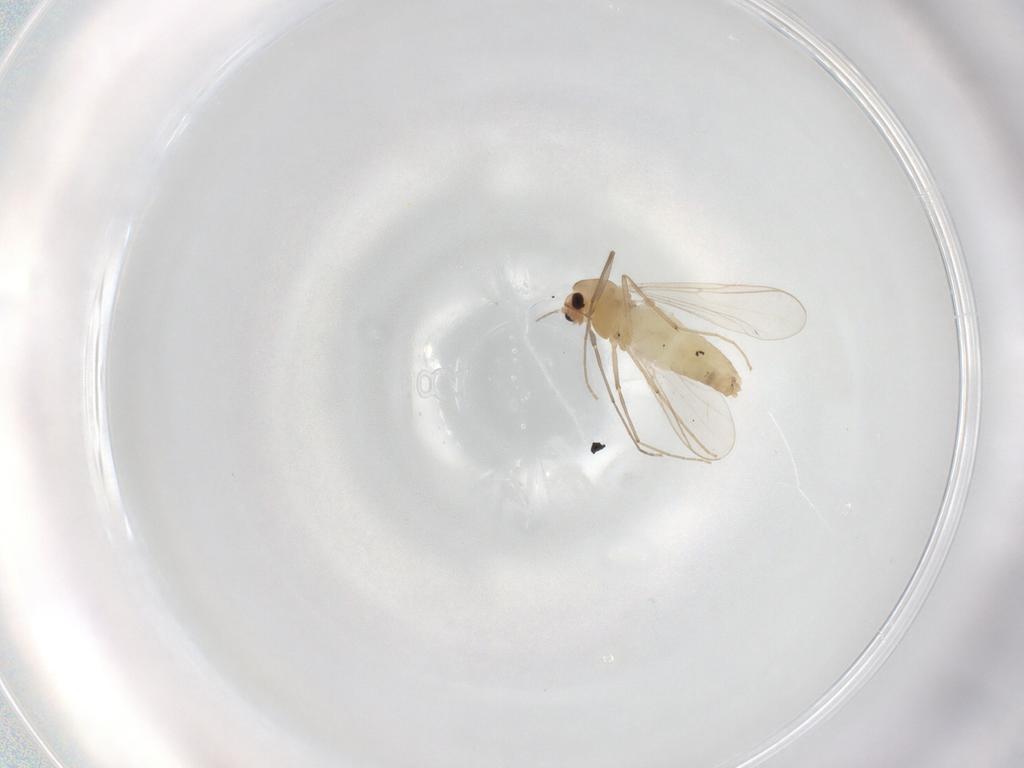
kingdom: Animalia
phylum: Arthropoda
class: Insecta
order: Diptera
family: Chironomidae
